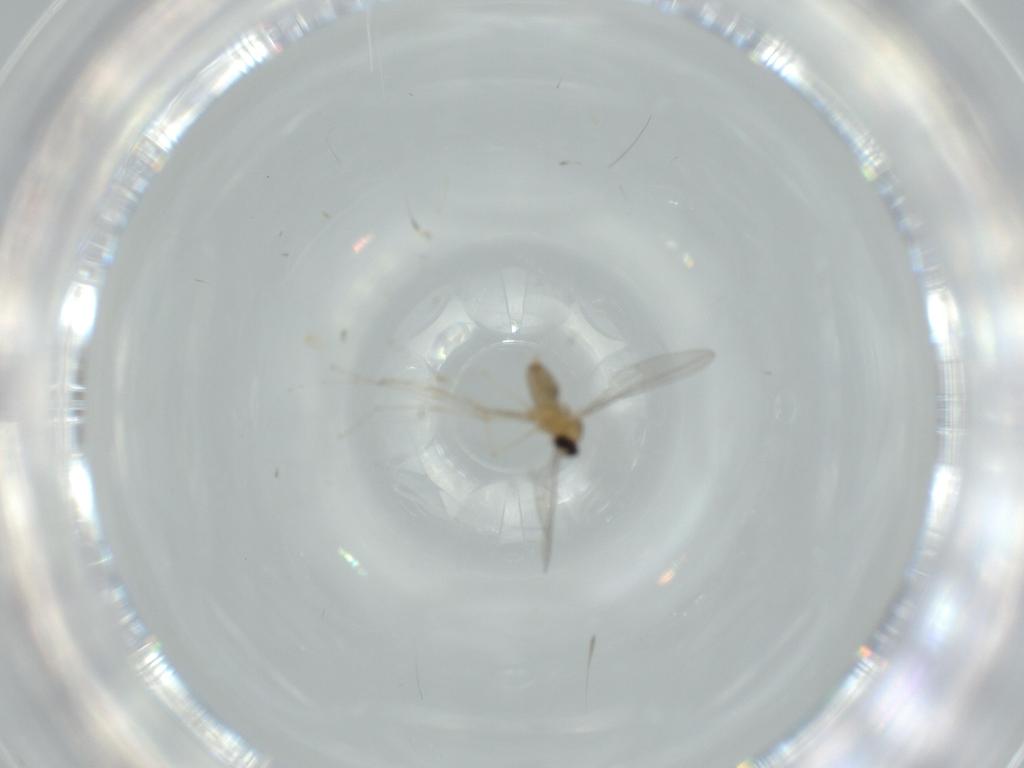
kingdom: Animalia
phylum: Arthropoda
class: Insecta
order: Diptera
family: Cecidomyiidae
